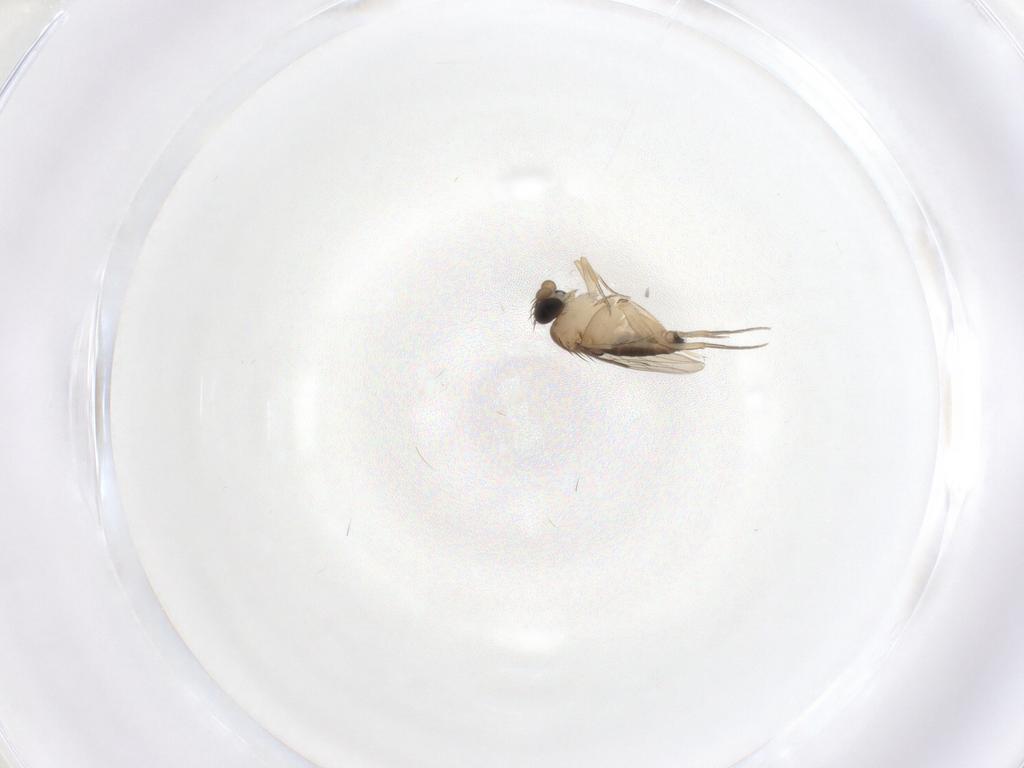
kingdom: Animalia
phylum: Arthropoda
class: Insecta
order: Diptera
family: Phoridae
